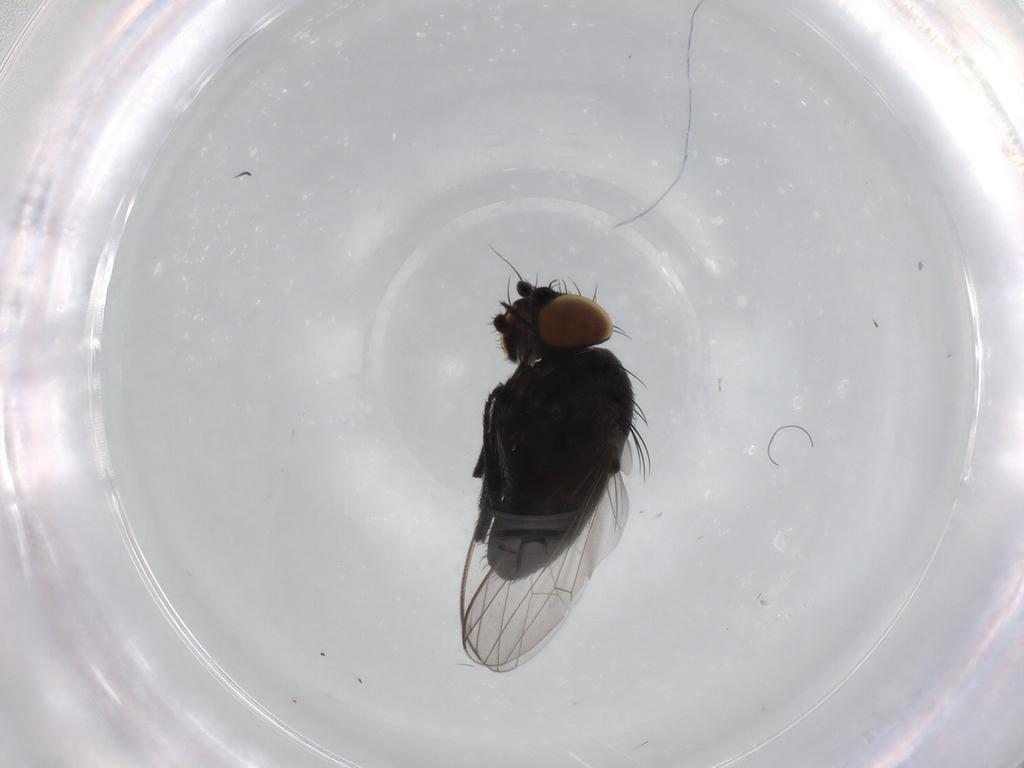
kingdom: Animalia
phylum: Arthropoda
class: Insecta
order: Diptera
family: Milichiidae
